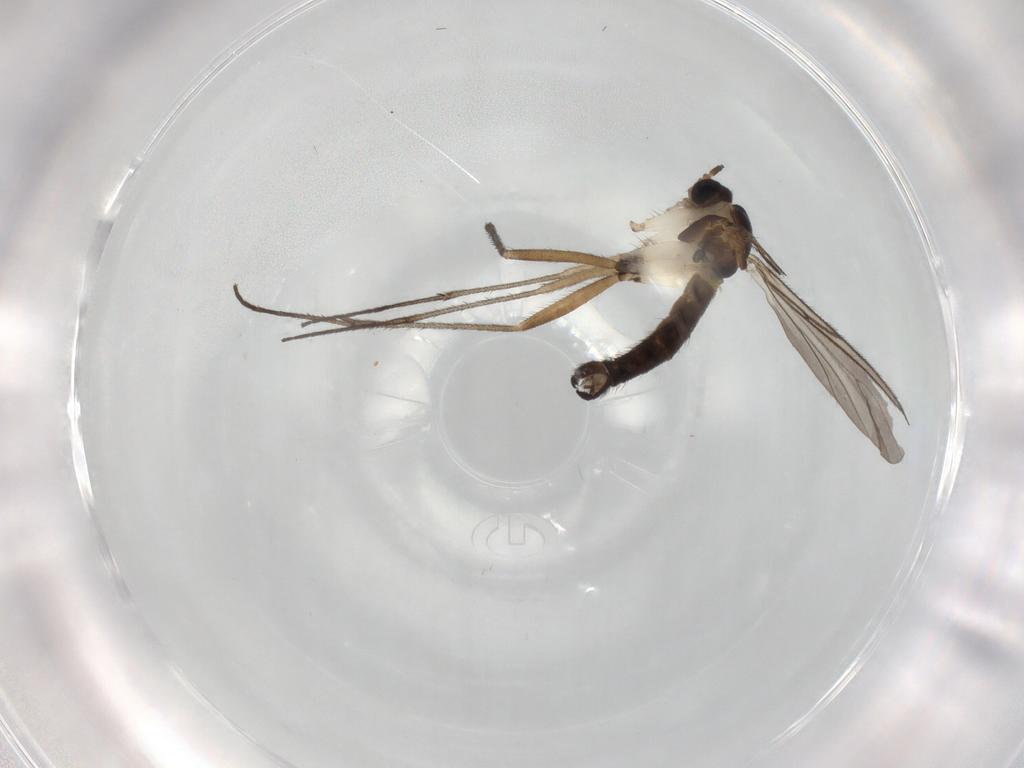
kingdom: Animalia
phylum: Arthropoda
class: Insecta
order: Diptera
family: Sciaridae
